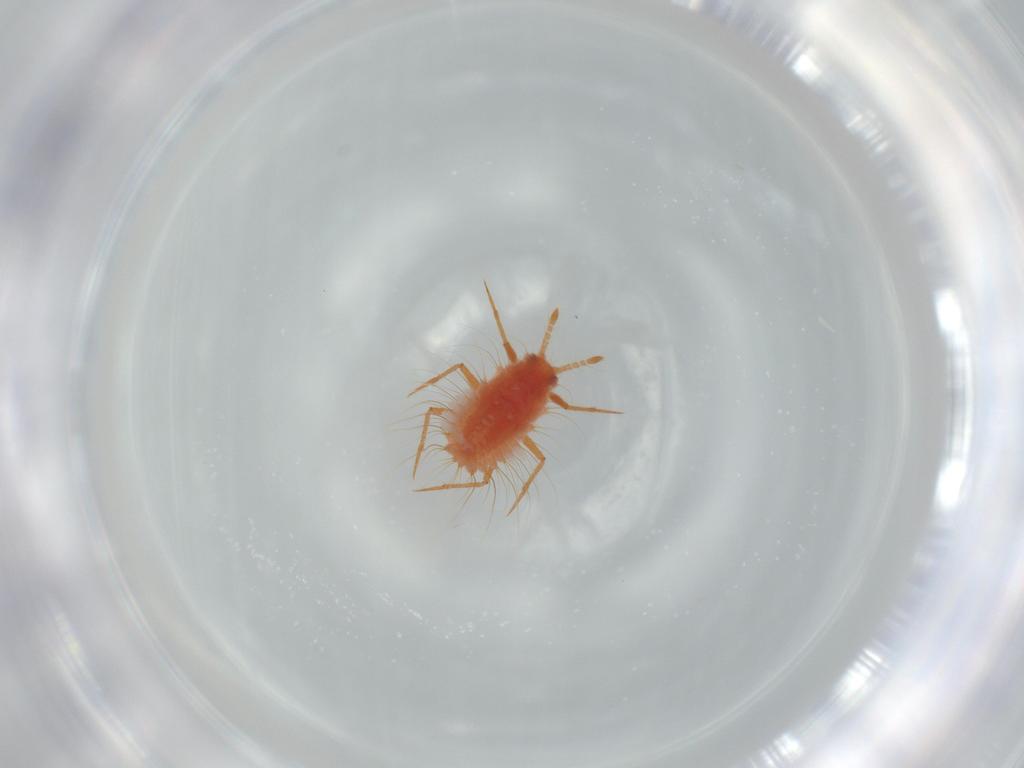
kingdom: Animalia
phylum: Arthropoda
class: Insecta
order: Hemiptera
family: Monophlebidae
